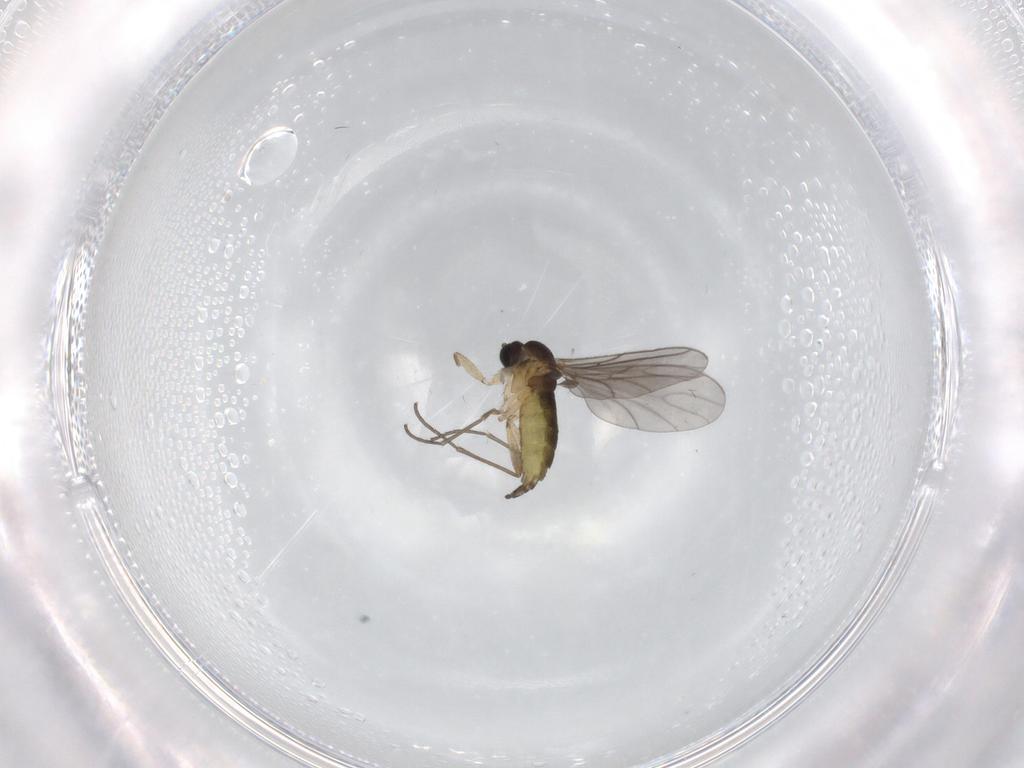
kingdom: Animalia
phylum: Arthropoda
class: Insecta
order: Diptera
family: Sciaridae
